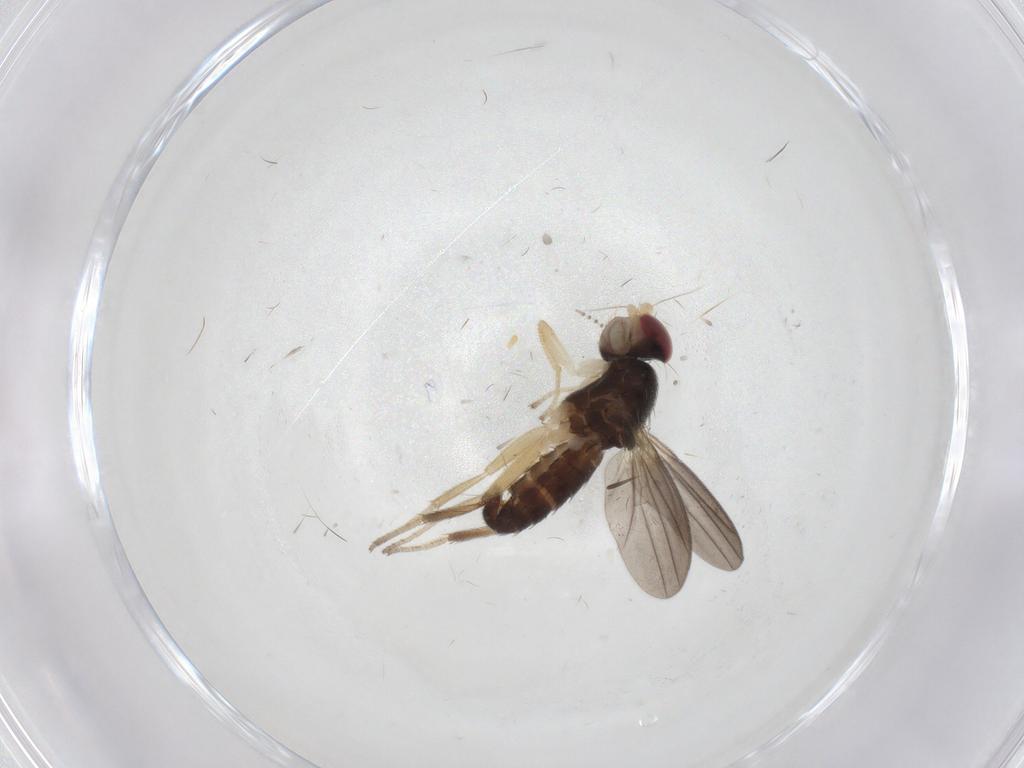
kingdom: Animalia
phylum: Arthropoda
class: Insecta
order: Diptera
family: Clusiidae
